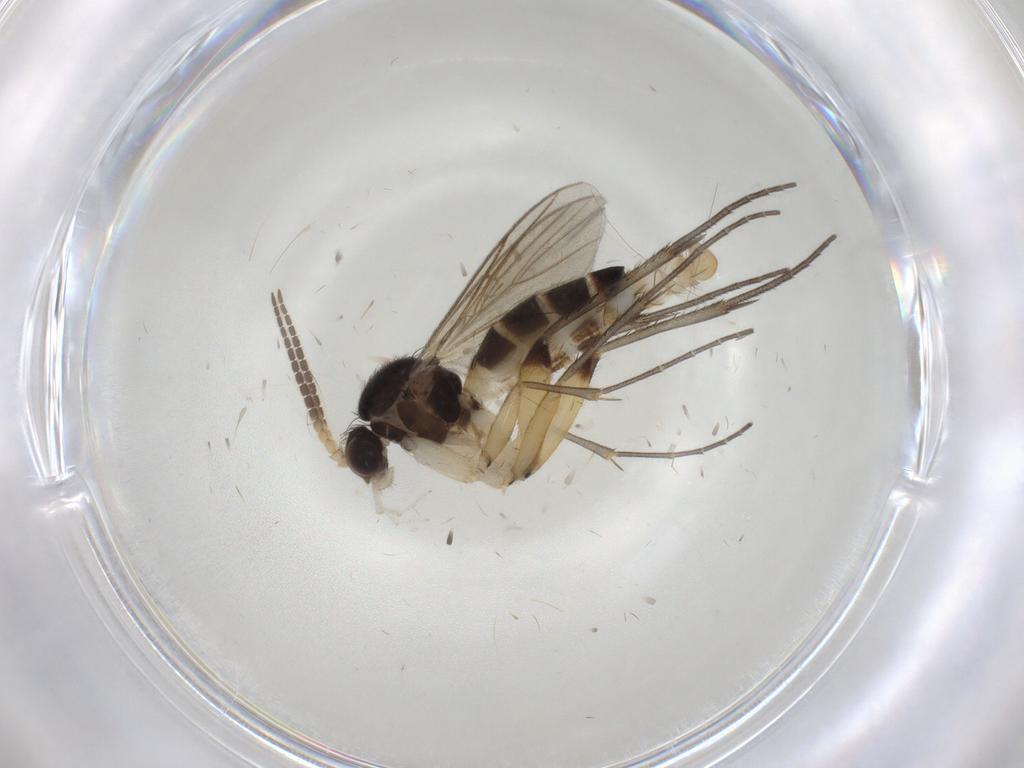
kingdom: Animalia
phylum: Arthropoda
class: Insecta
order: Diptera
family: Mycetophilidae
